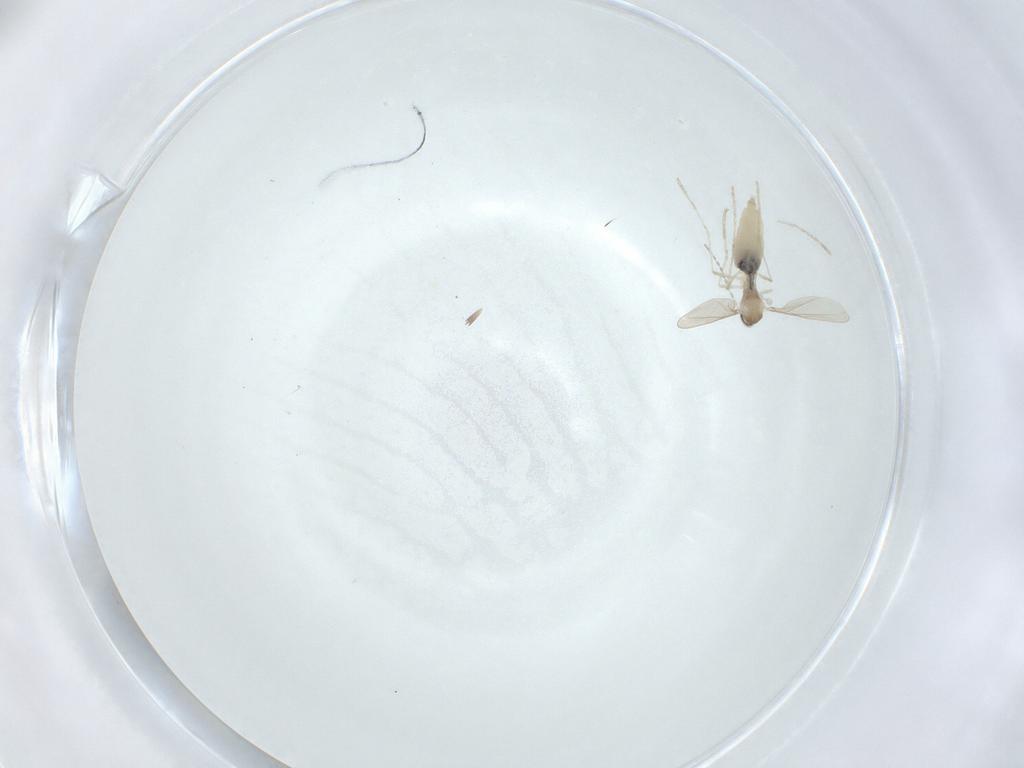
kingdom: Animalia
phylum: Arthropoda
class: Insecta
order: Diptera
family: Cecidomyiidae
